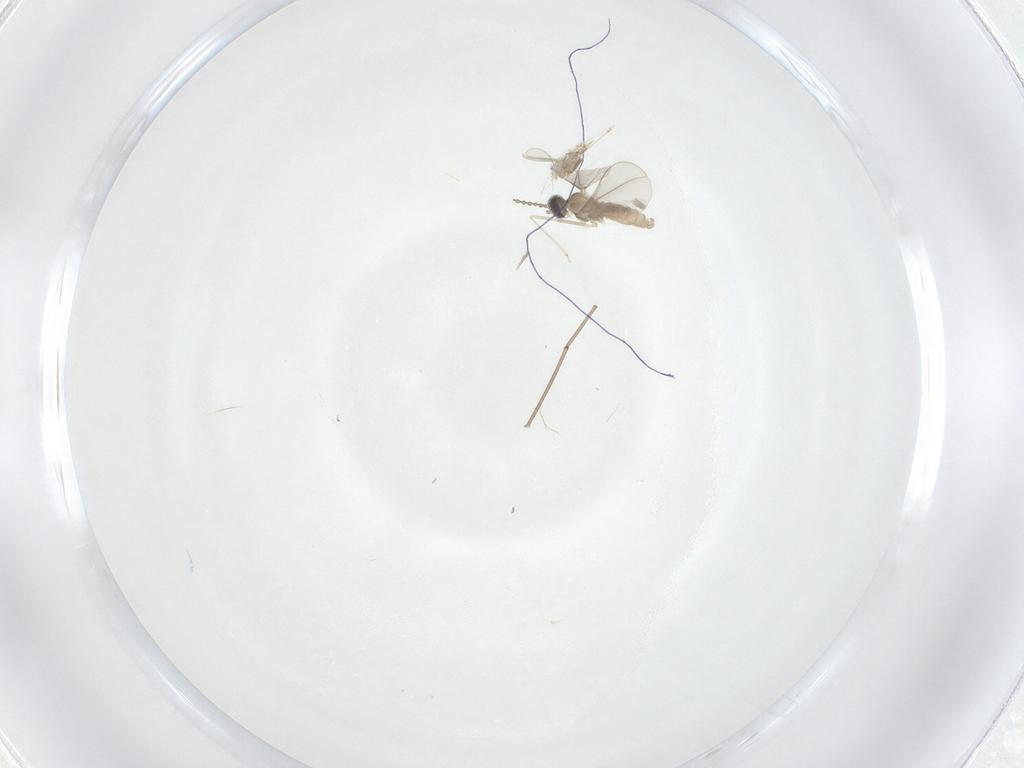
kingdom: Animalia
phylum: Arthropoda
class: Insecta
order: Diptera
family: Cecidomyiidae
